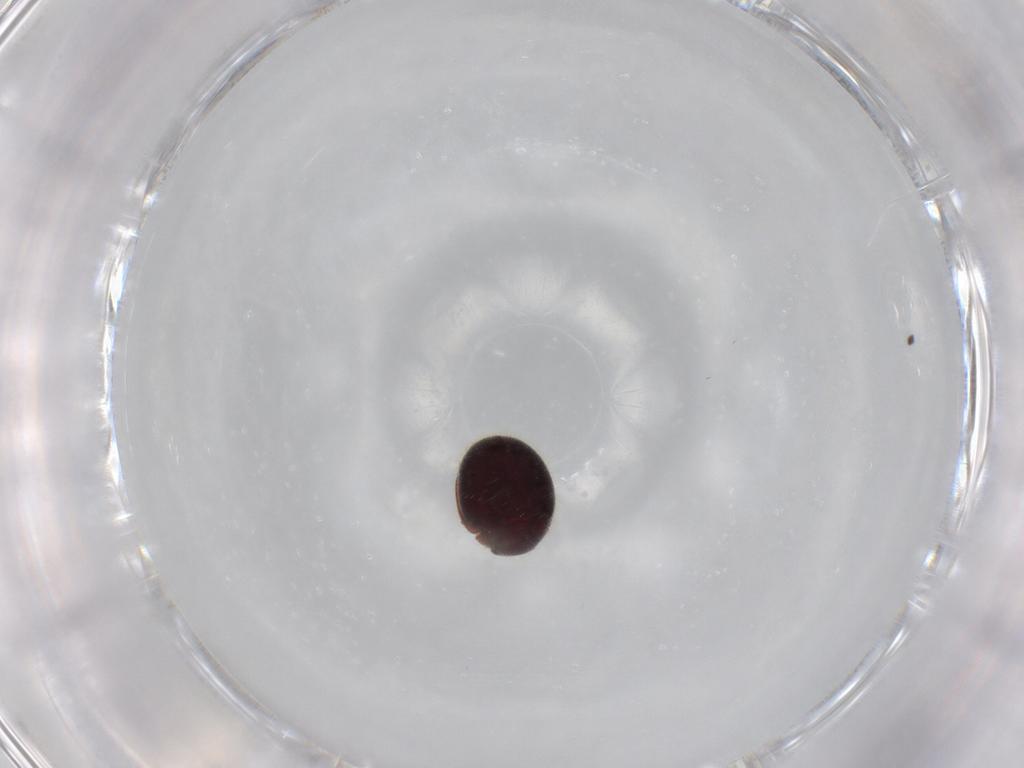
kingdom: Animalia
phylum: Arthropoda
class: Insecta
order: Coleoptera
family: Coccinellidae
